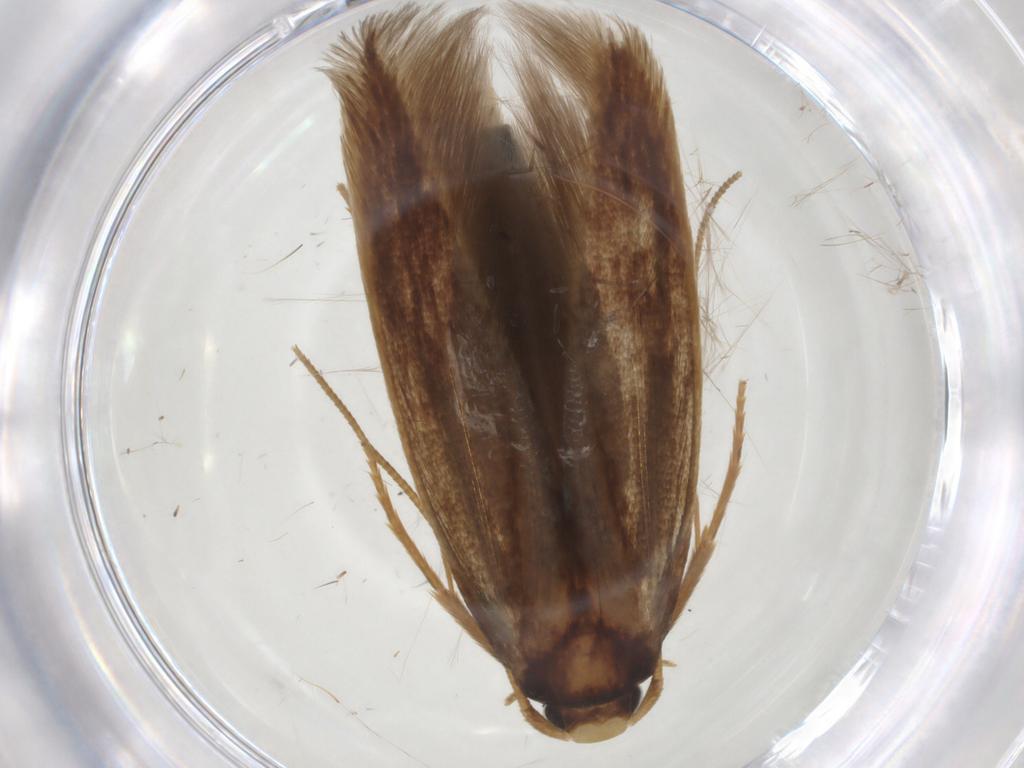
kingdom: Animalia
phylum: Arthropoda
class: Insecta
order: Lepidoptera
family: Tineidae
